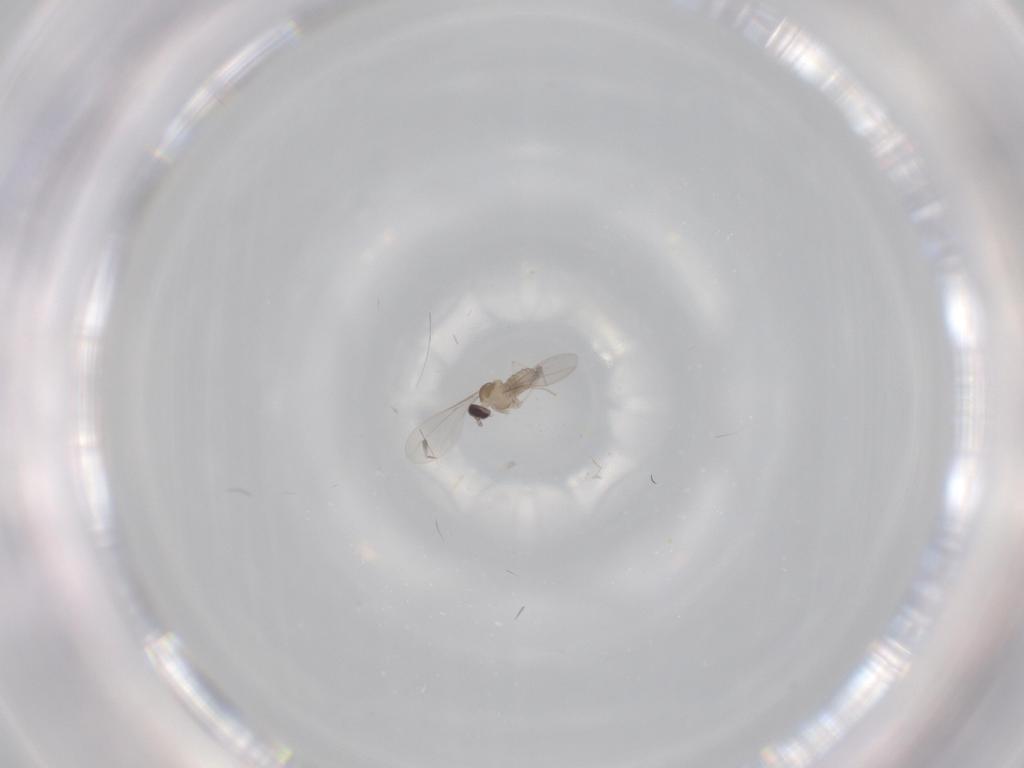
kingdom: Animalia
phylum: Arthropoda
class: Insecta
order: Diptera
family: Cecidomyiidae
